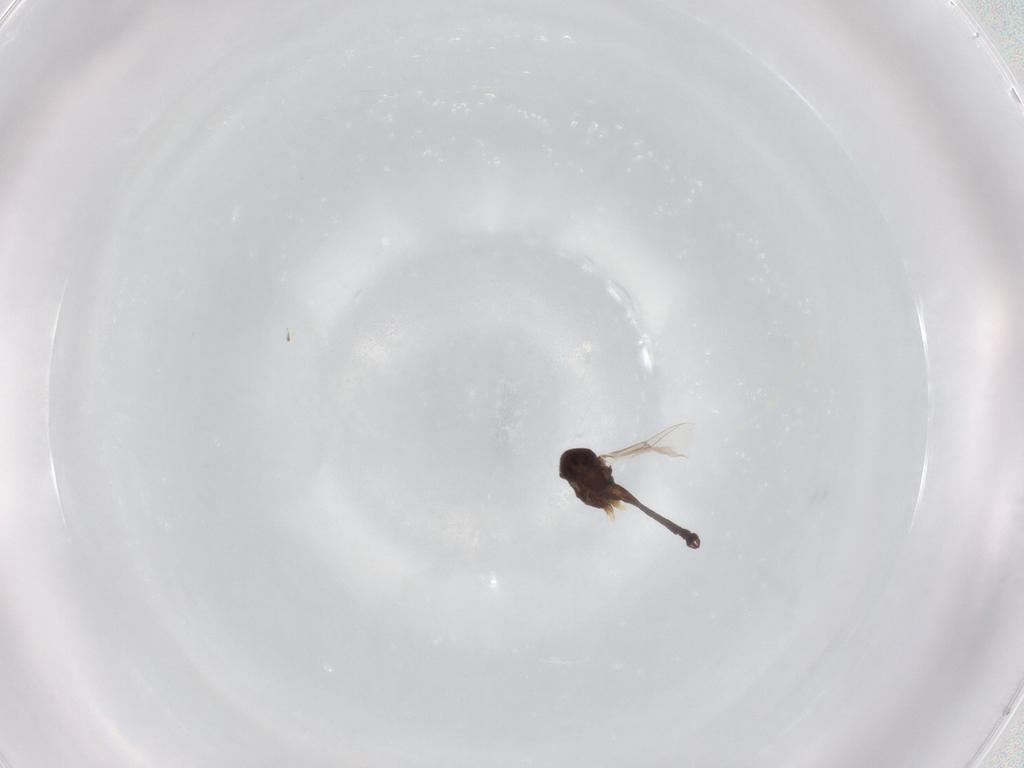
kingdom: Animalia
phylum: Arthropoda
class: Insecta
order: Diptera
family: Chironomidae
